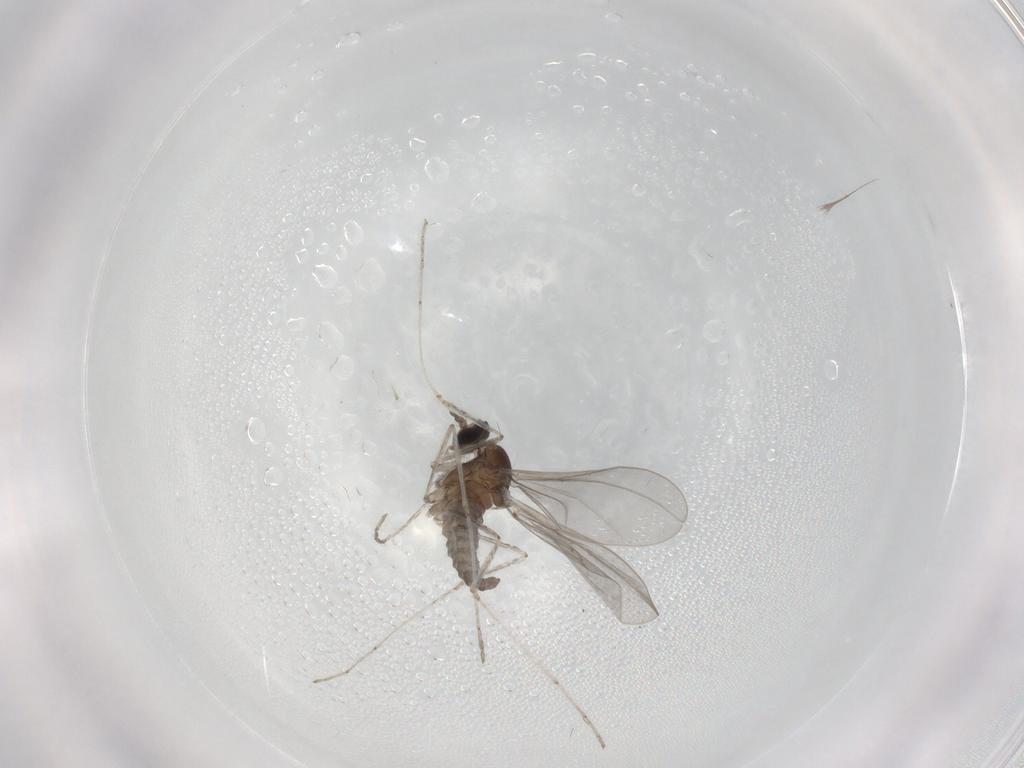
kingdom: Animalia
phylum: Arthropoda
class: Insecta
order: Diptera
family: Cecidomyiidae
